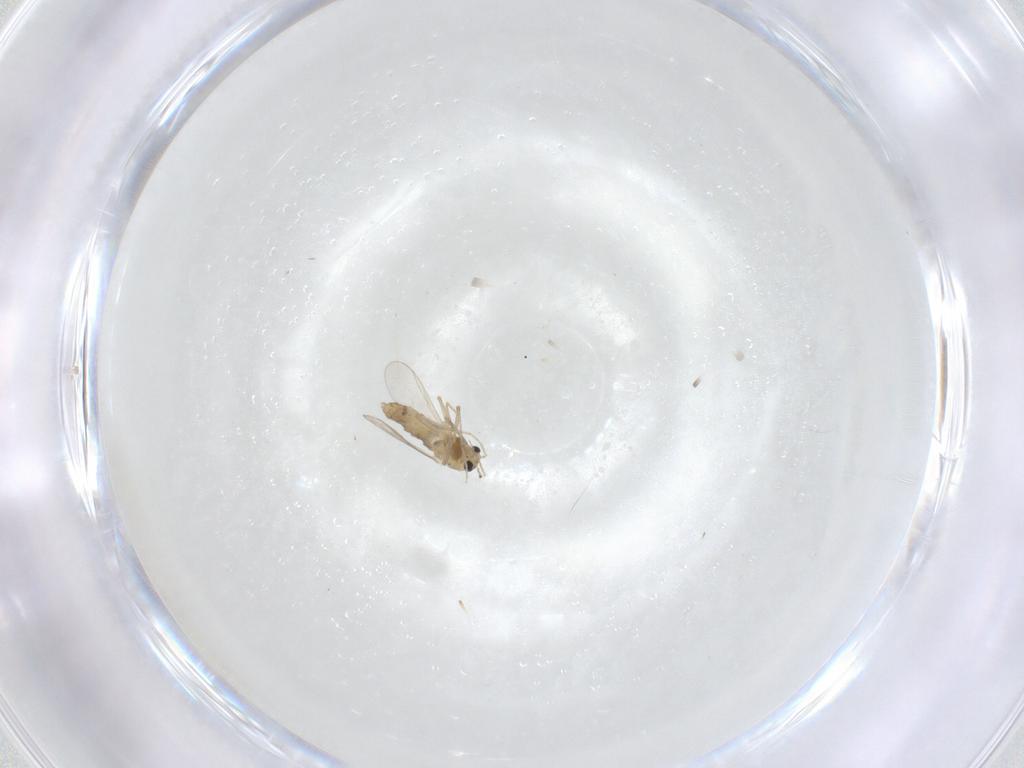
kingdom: Animalia
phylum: Arthropoda
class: Insecta
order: Diptera
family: Chironomidae
